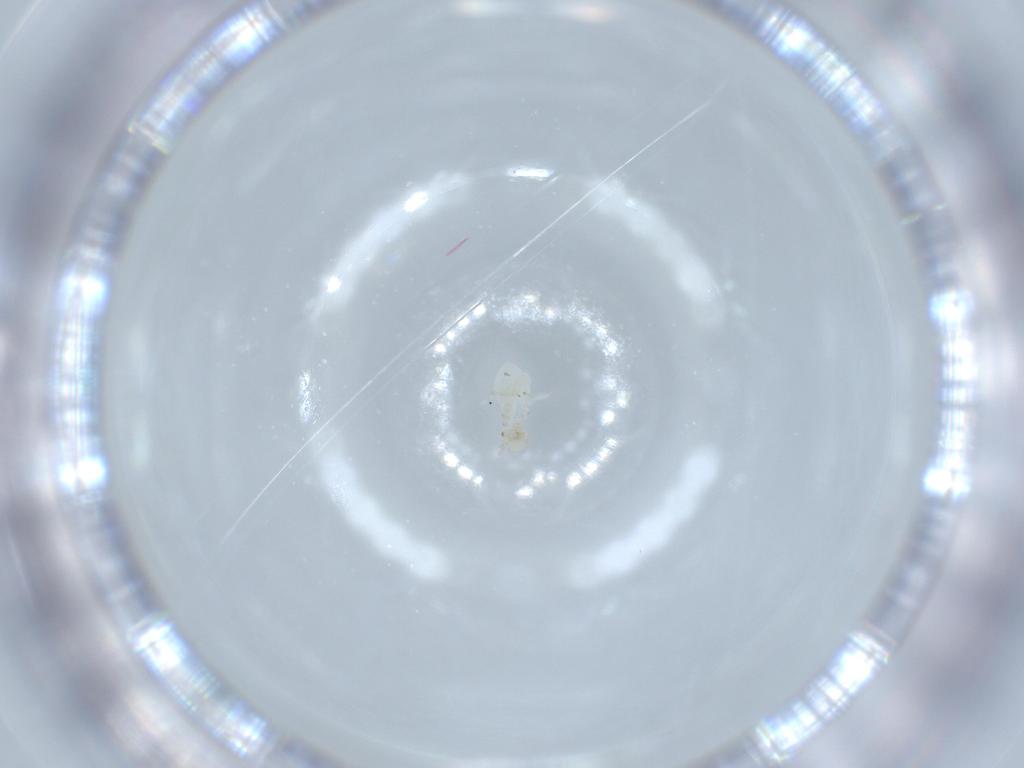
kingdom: Animalia
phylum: Arthropoda
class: Insecta
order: Psocodea
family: Caeciliusidae
